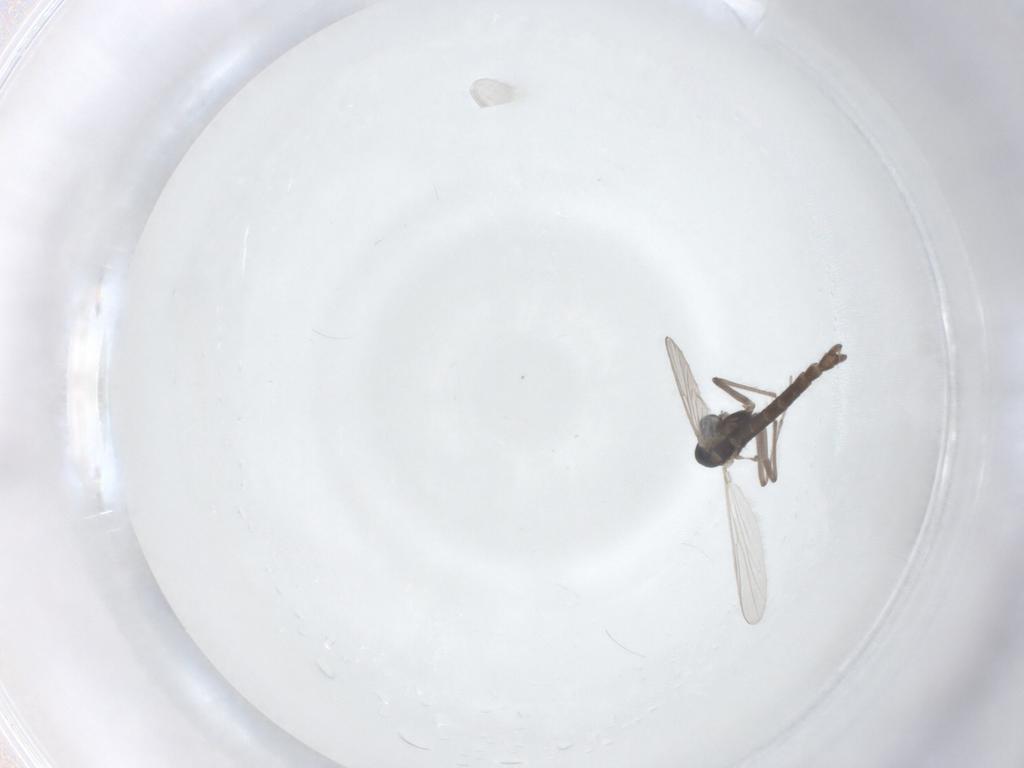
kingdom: Animalia
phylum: Arthropoda
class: Insecta
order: Diptera
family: Chironomidae
